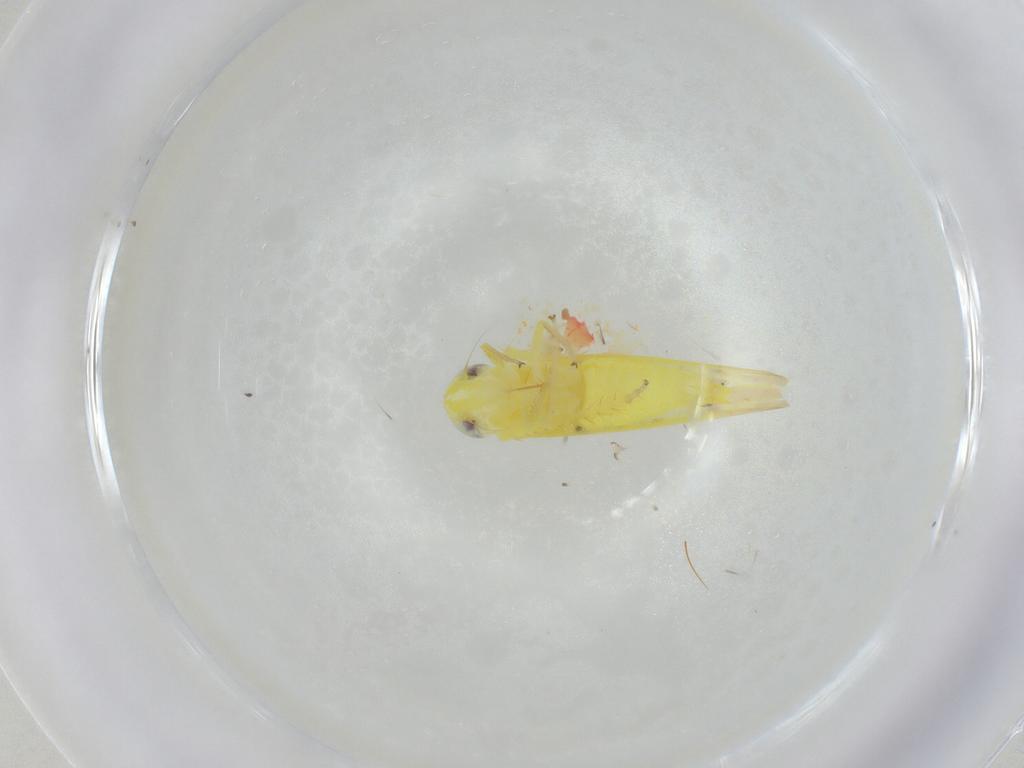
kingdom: Animalia
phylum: Arthropoda
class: Insecta
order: Hemiptera
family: Cicadellidae
